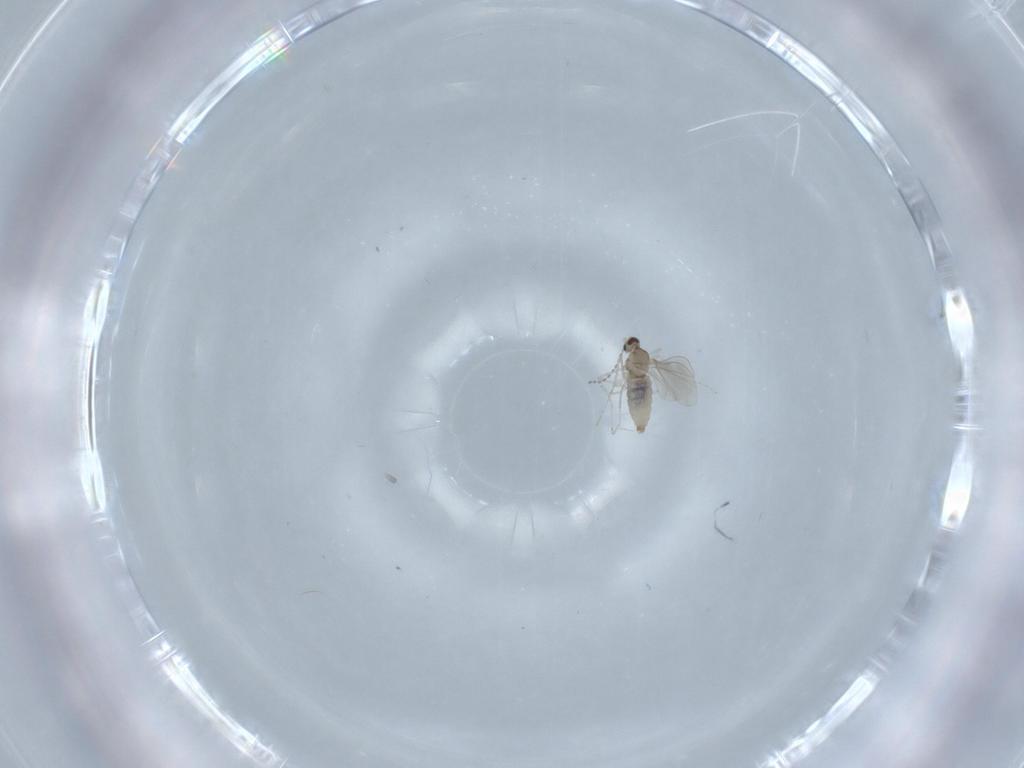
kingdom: Animalia
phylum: Arthropoda
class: Insecta
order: Diptera
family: Cecidomyiidae
